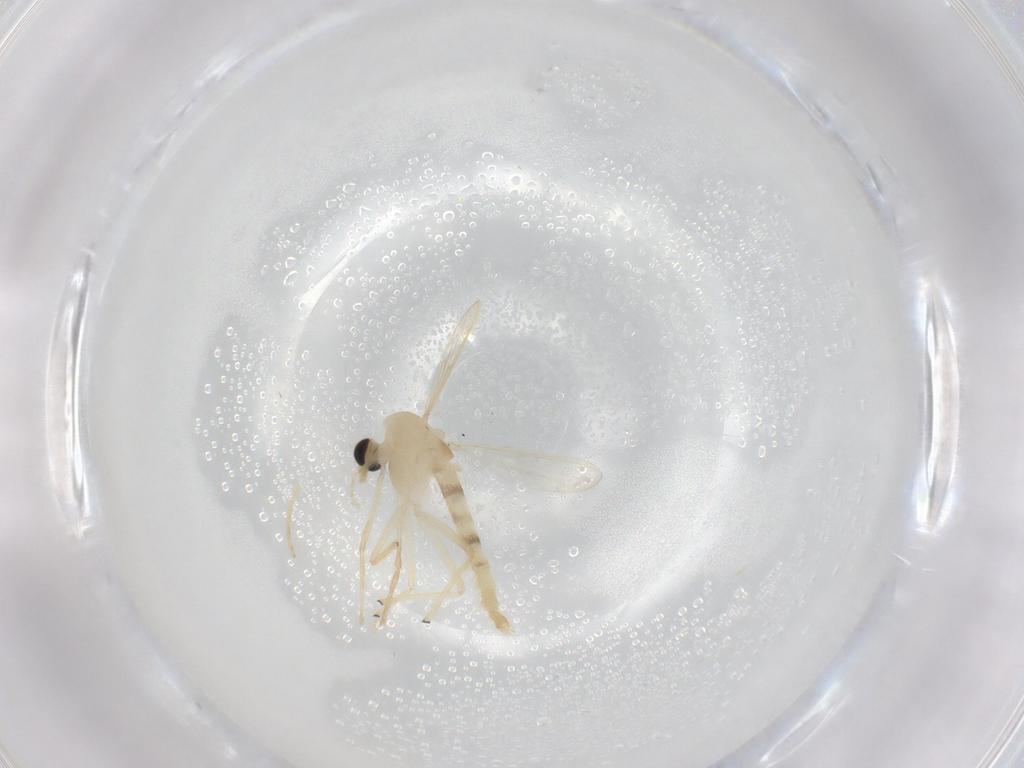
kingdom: Animalia
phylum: Arthropoda
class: Insecta
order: Diptera
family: Chironomidae
